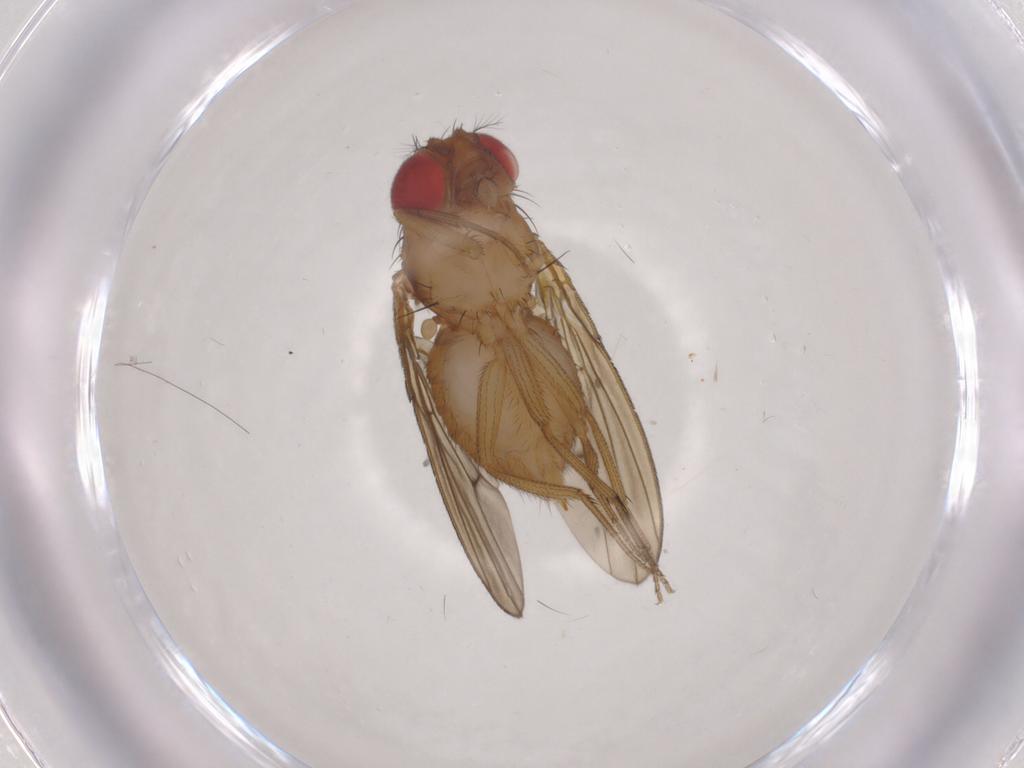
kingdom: Animalia
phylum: Arthropoda
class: Insecta
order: Diptera
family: Drosophilidae
